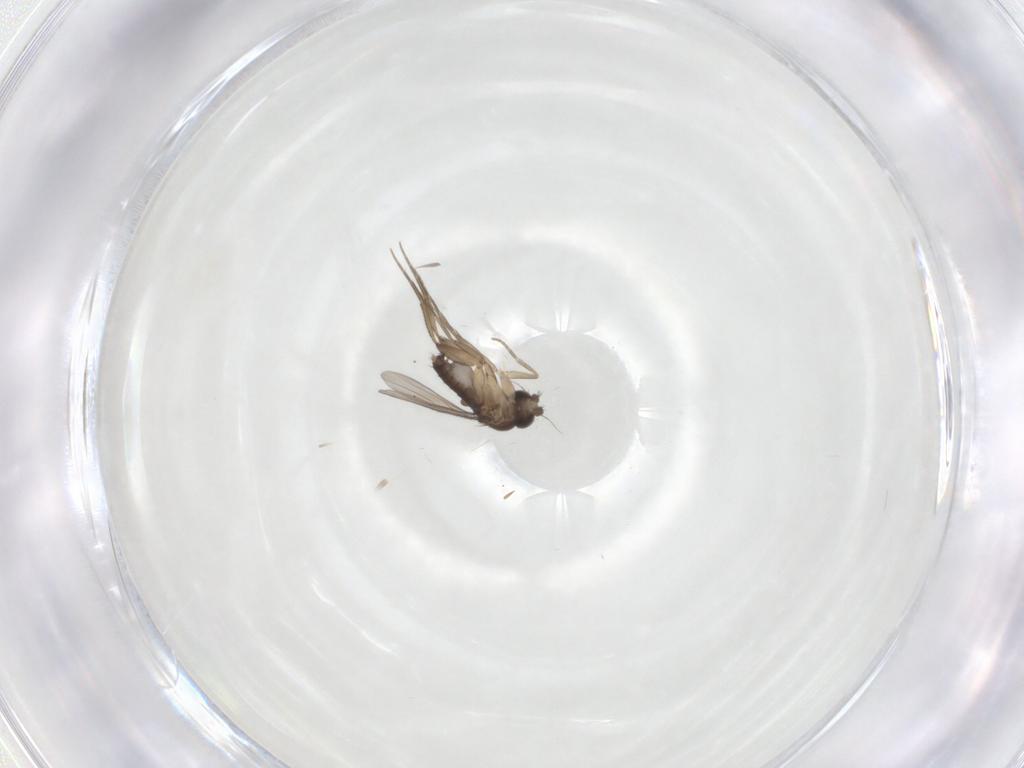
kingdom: Animalia
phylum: Arthropoda
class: Insecta
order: Diptera
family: Phoridae
